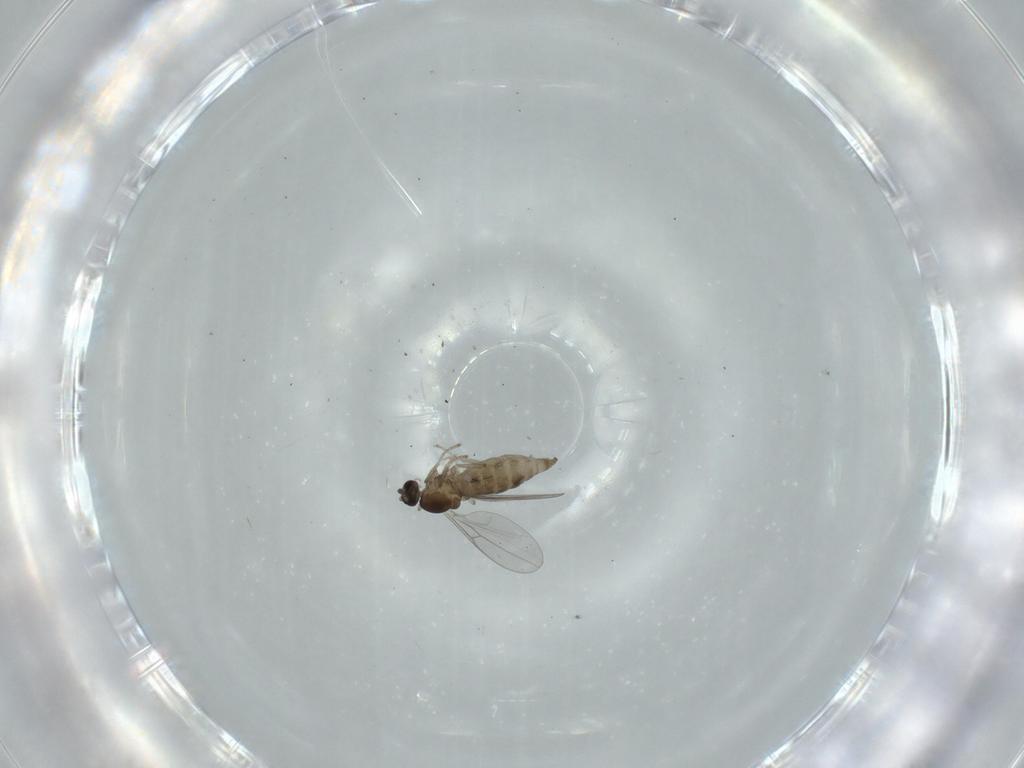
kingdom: Animalia
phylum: Arthropoda
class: Insecta
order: Diptera
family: Cecidomyiidae
